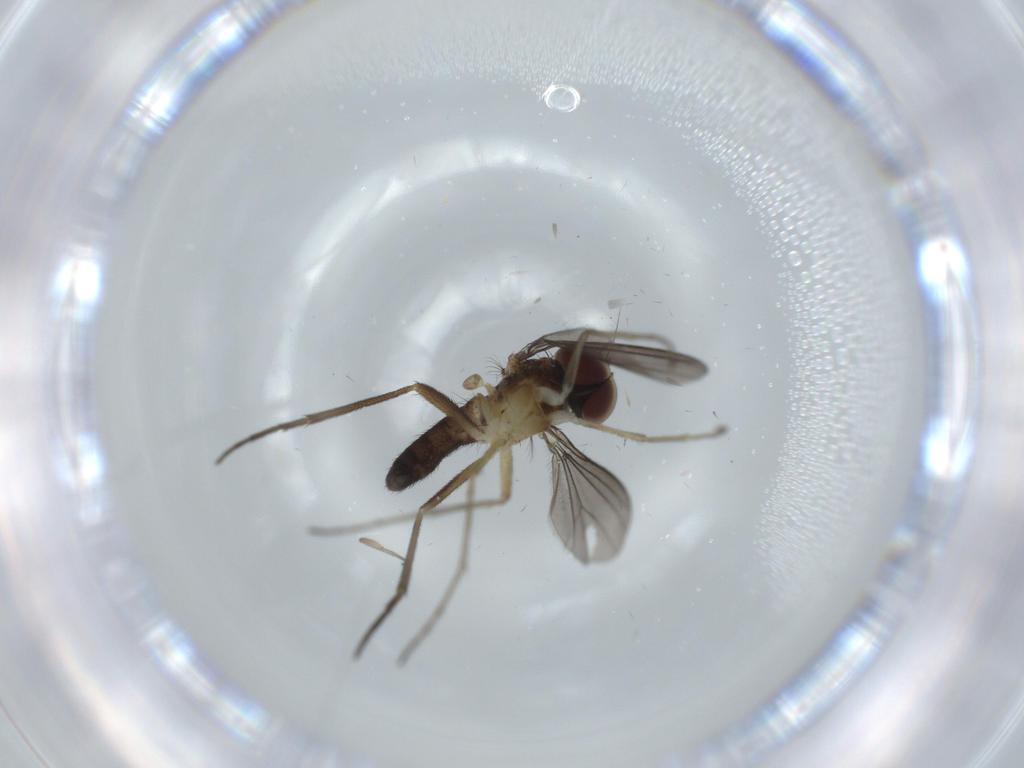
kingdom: Animalia
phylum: Arthropoda
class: Insecta
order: Diptera
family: Dolichopodidae
